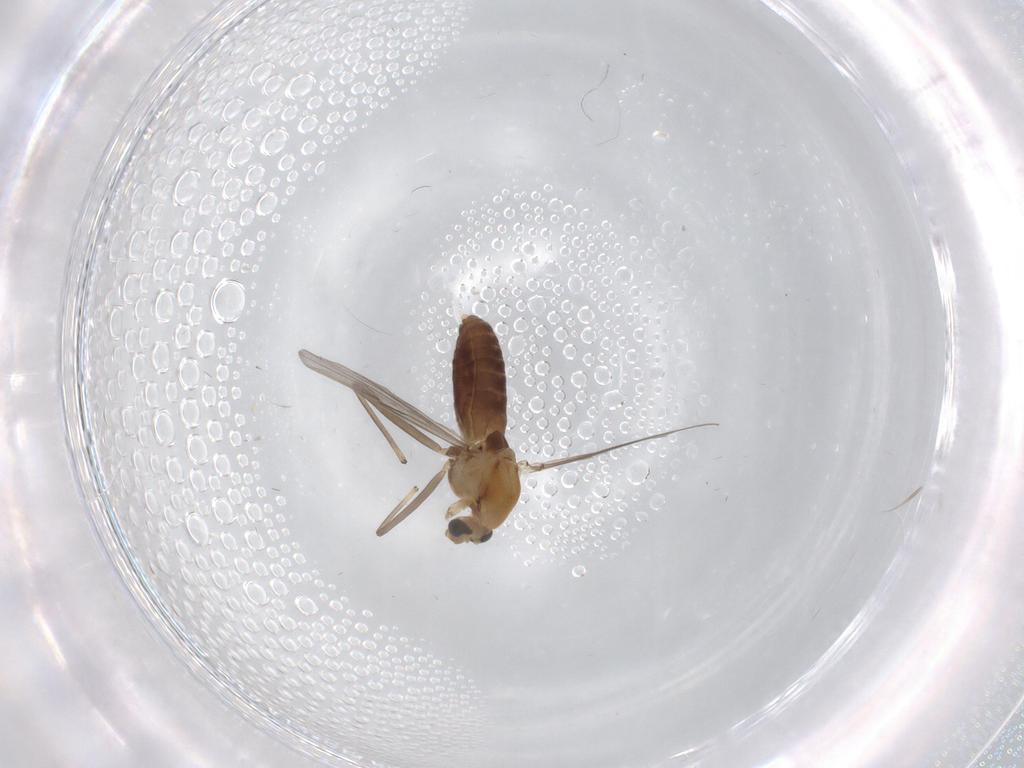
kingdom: Animalia
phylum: Arthropoda
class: Insecta
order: Diptera
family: Chironomidae
